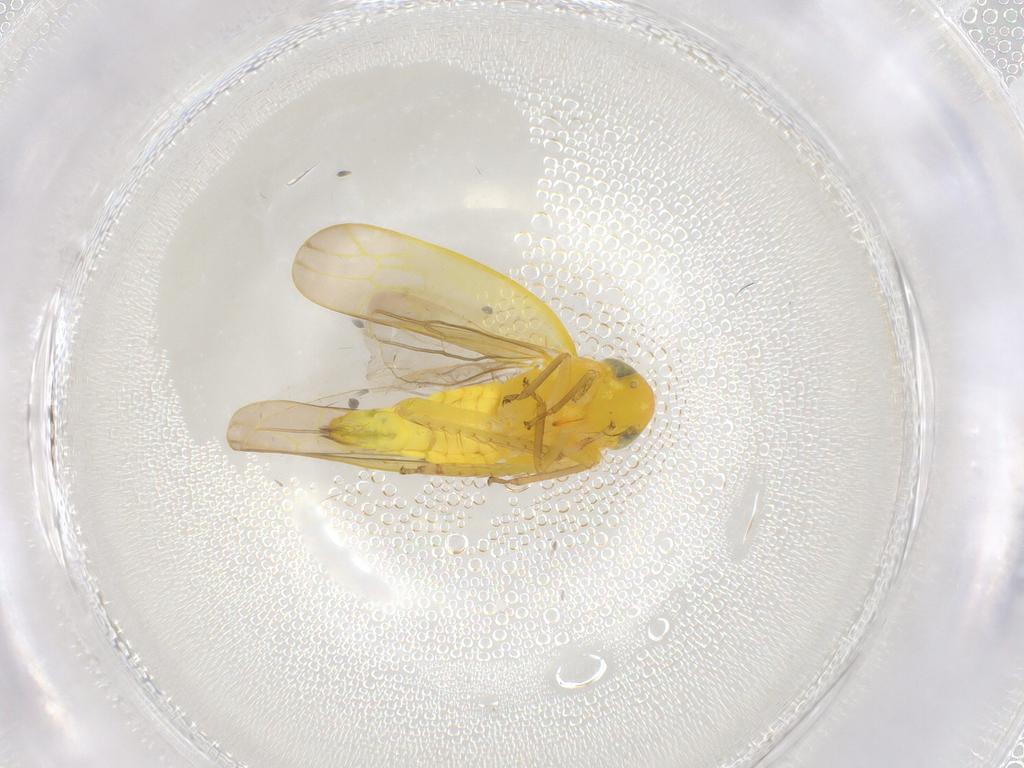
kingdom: Animalia
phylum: Arthropoda
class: Insecta
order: Hemiptera
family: Cicadellidae
